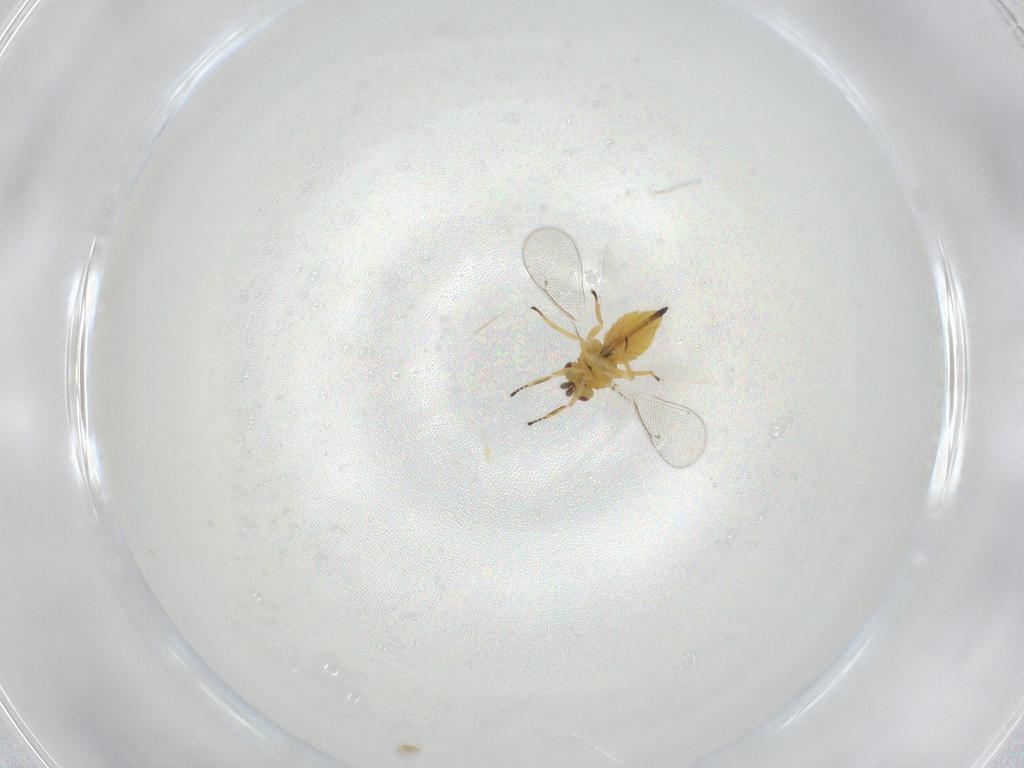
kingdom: Animalia
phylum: Arthropoda
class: Insecta
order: Hymenoptera
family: Eulophidae
